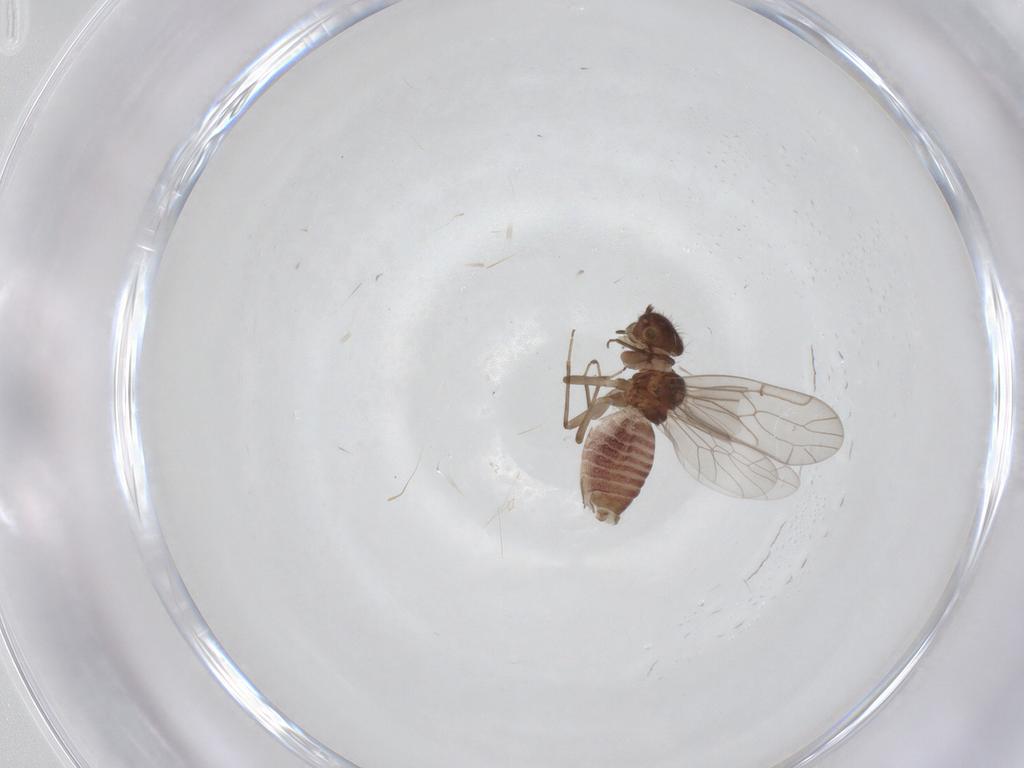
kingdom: Animalia
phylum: Arthropoda
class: Insecta
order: Psocodea
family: Ectopsocidae
